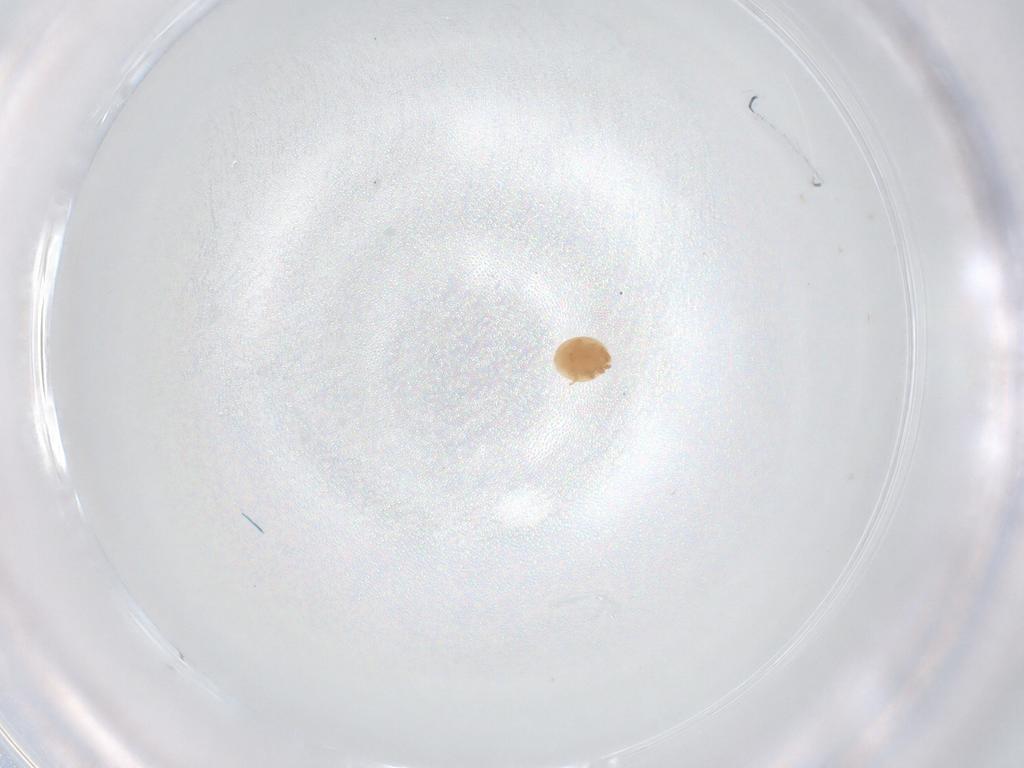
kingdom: Animalia
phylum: Arthropoda
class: Arachnida
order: Mesostigmata
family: Trematuridae
